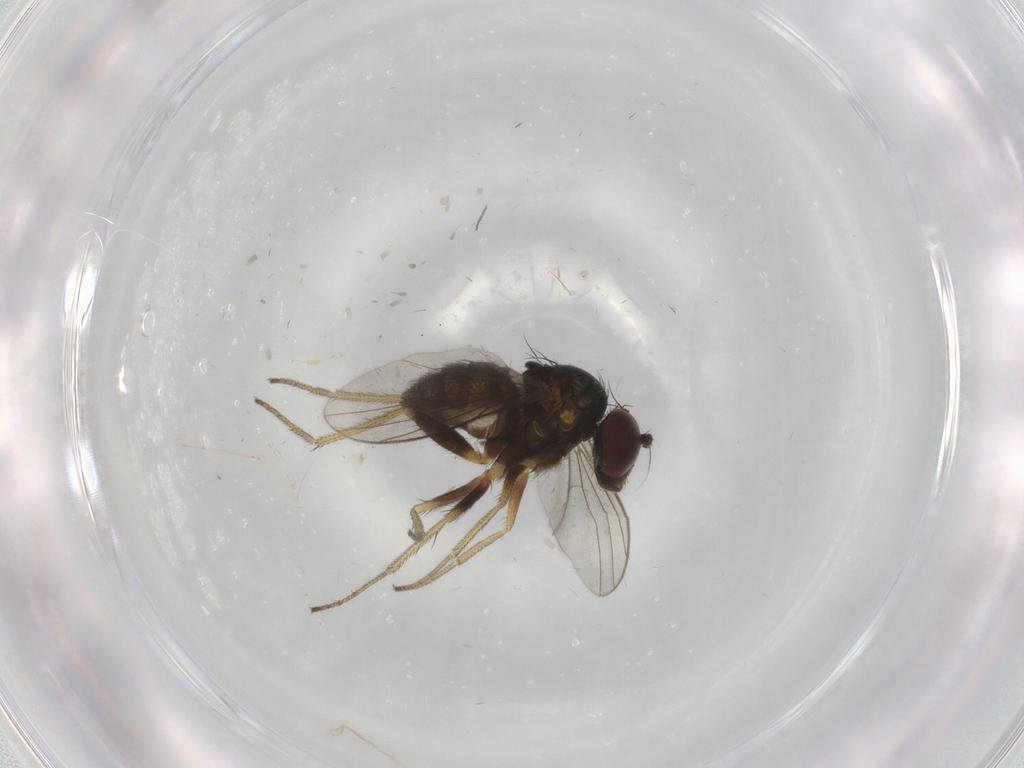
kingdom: Animalia
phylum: Arthropoda
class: Insecta
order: Diptera
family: Dolichopodidae
